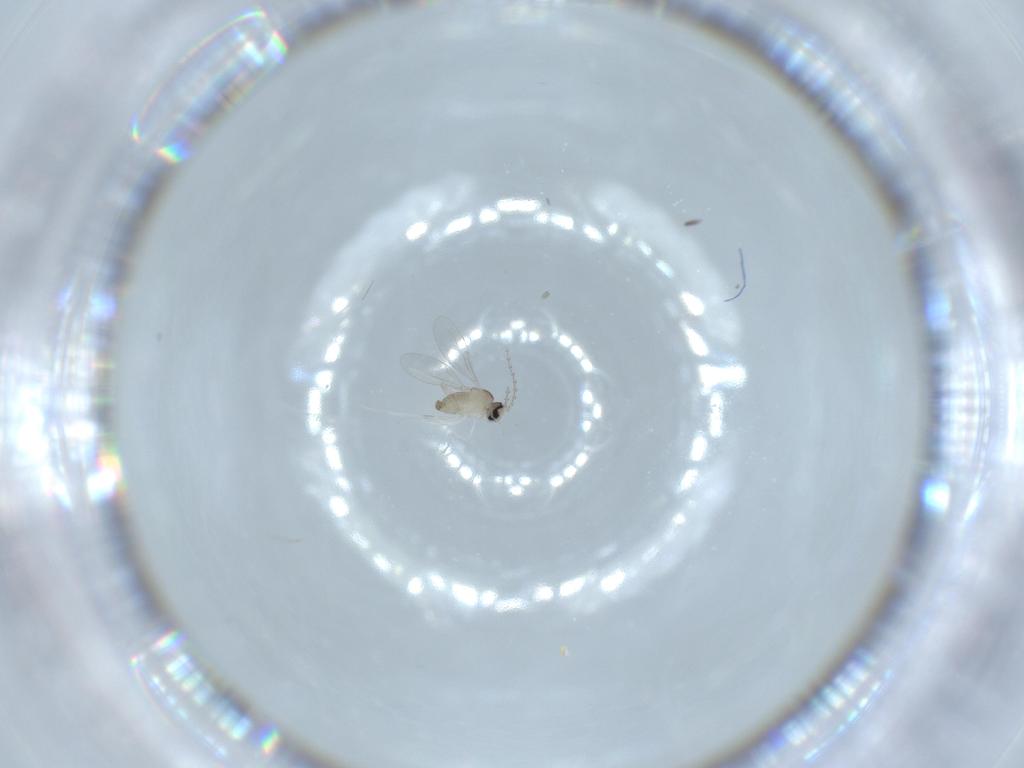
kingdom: Animalia
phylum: Arthropoda
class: Insecta
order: Diptera
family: Cecidomyiidae
